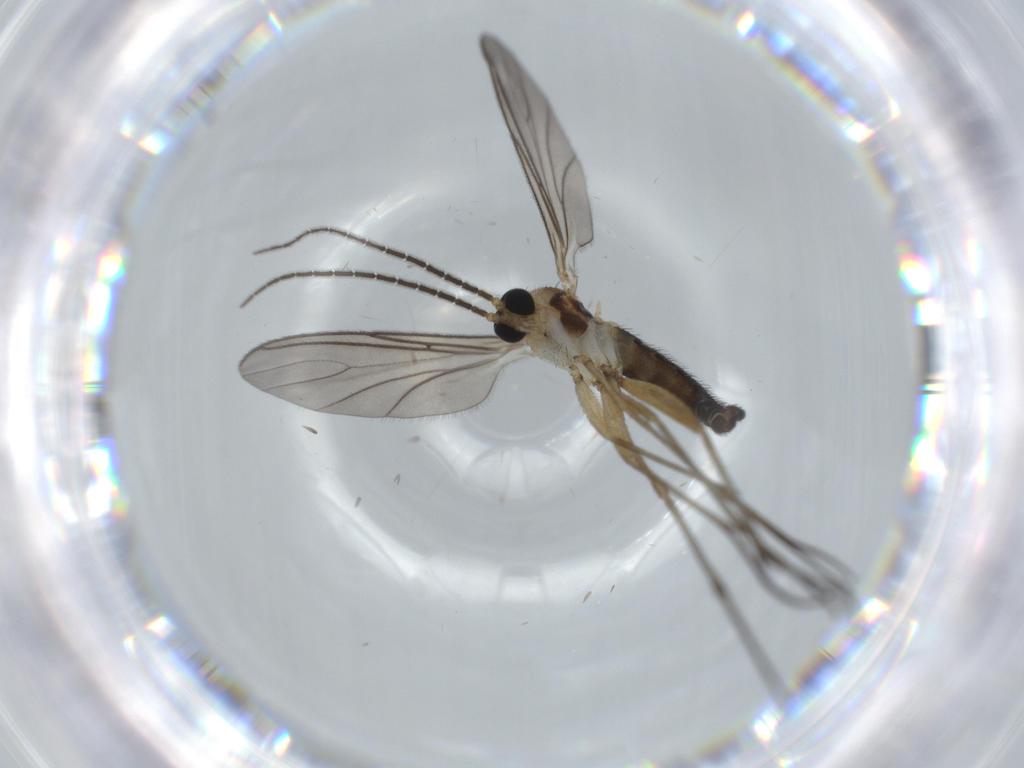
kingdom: Animalia
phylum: Arthropoda
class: Insecta
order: Diptera
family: Sciaridae
